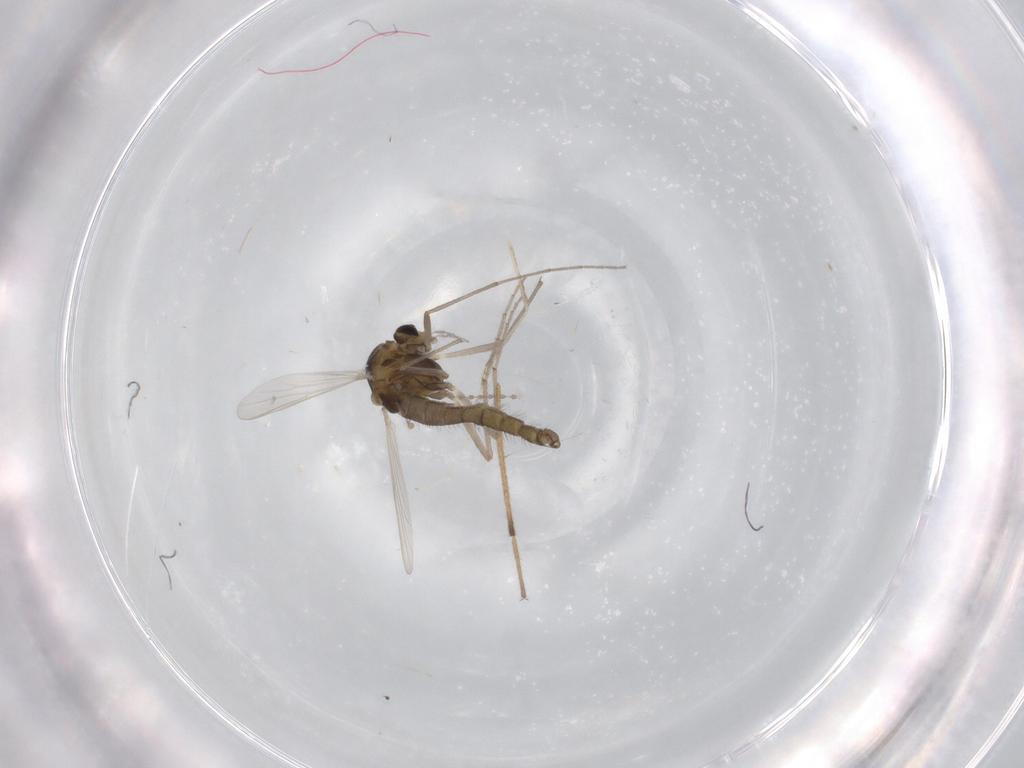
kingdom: Animalia
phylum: Arthropoda
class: Insecta
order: Diptera
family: Chironomidae
